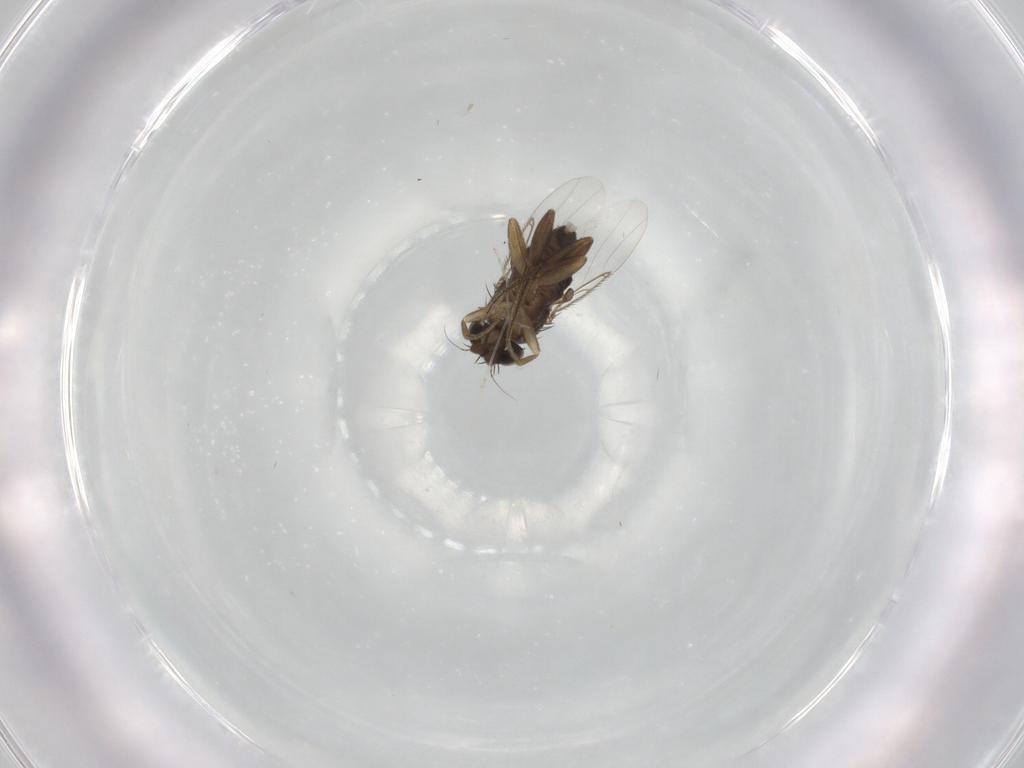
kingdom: Animalia
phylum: Arthropoda
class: Insecta
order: Diptera
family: Phoridae
